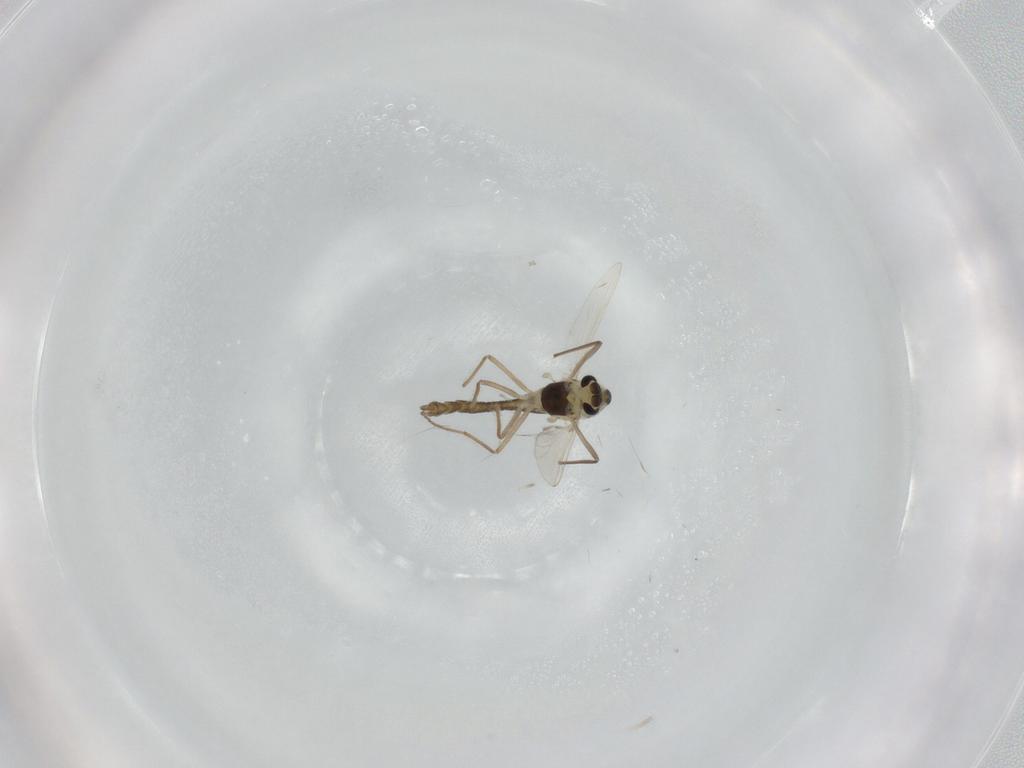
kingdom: Animalia
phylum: Arthropoda
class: Insecta
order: Diptera
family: Chironomidae
